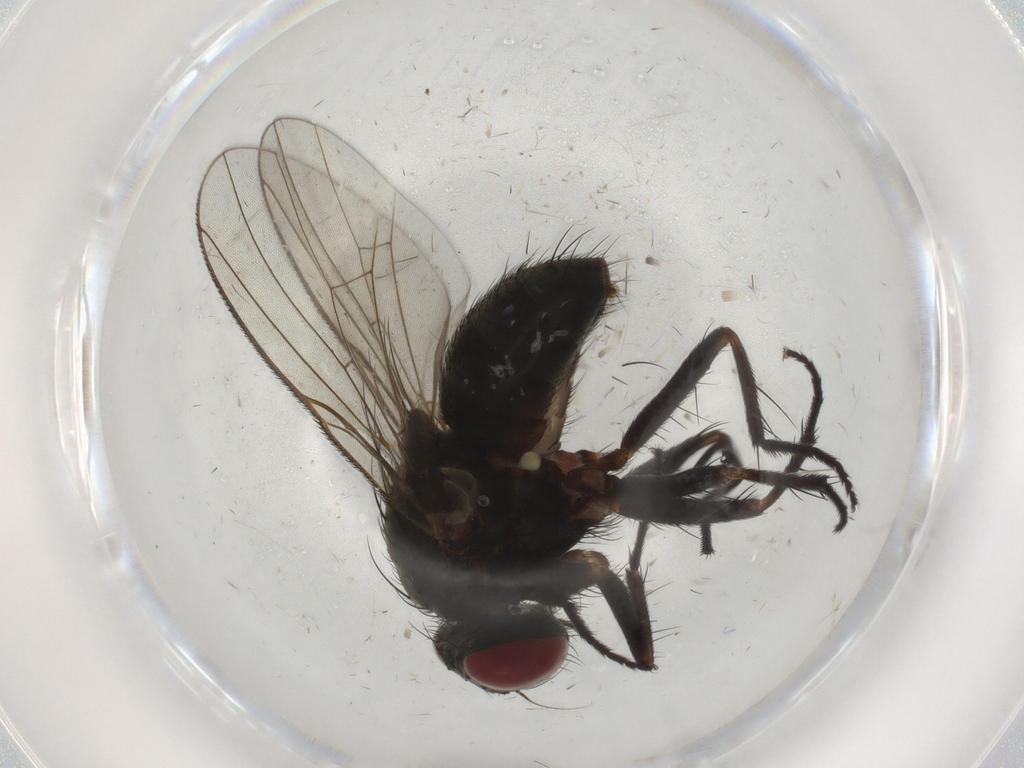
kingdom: Animalia
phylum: Arthropoda
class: Insecta
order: Diptera
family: Muscidae
